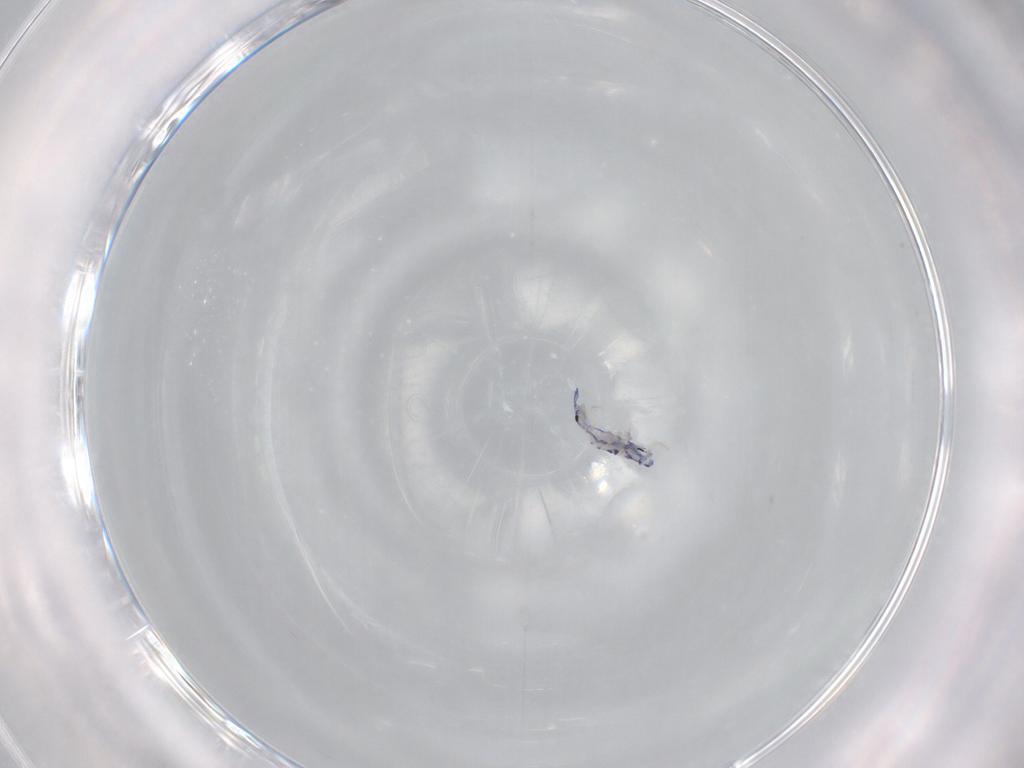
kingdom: Animalia
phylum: Arthropoda
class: Collembola
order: Entomobryomorpha
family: Entomobryidae
